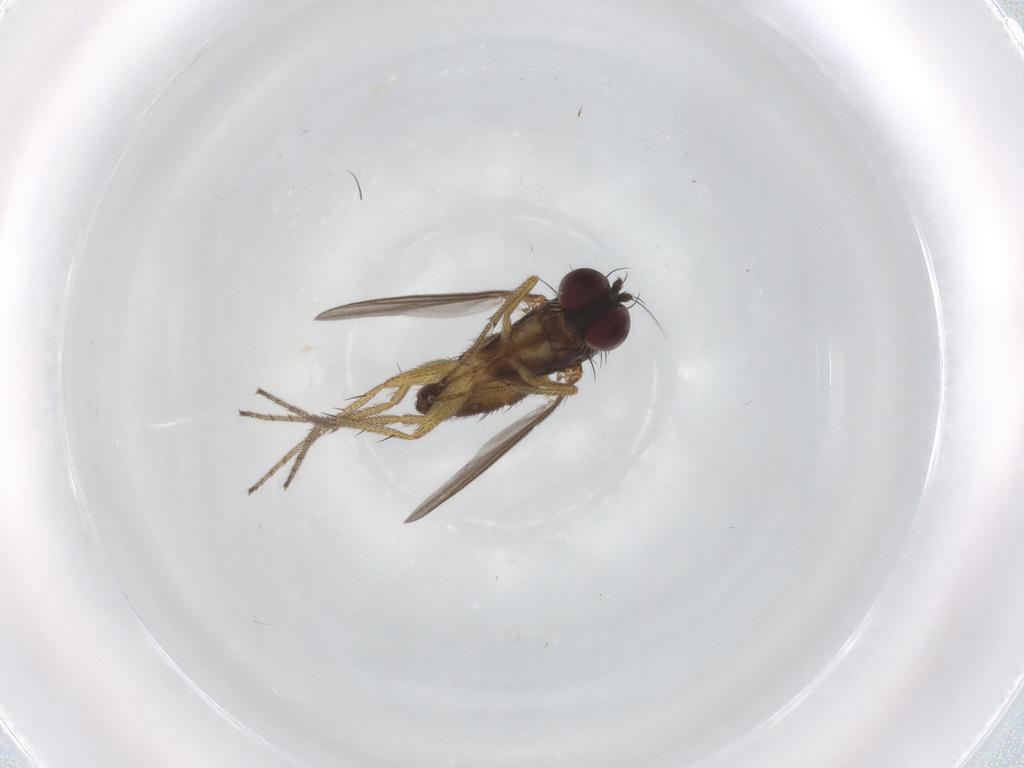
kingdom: Animalia
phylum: Arthropoda
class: Insecta
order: Diptera
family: Dolichopodidae
